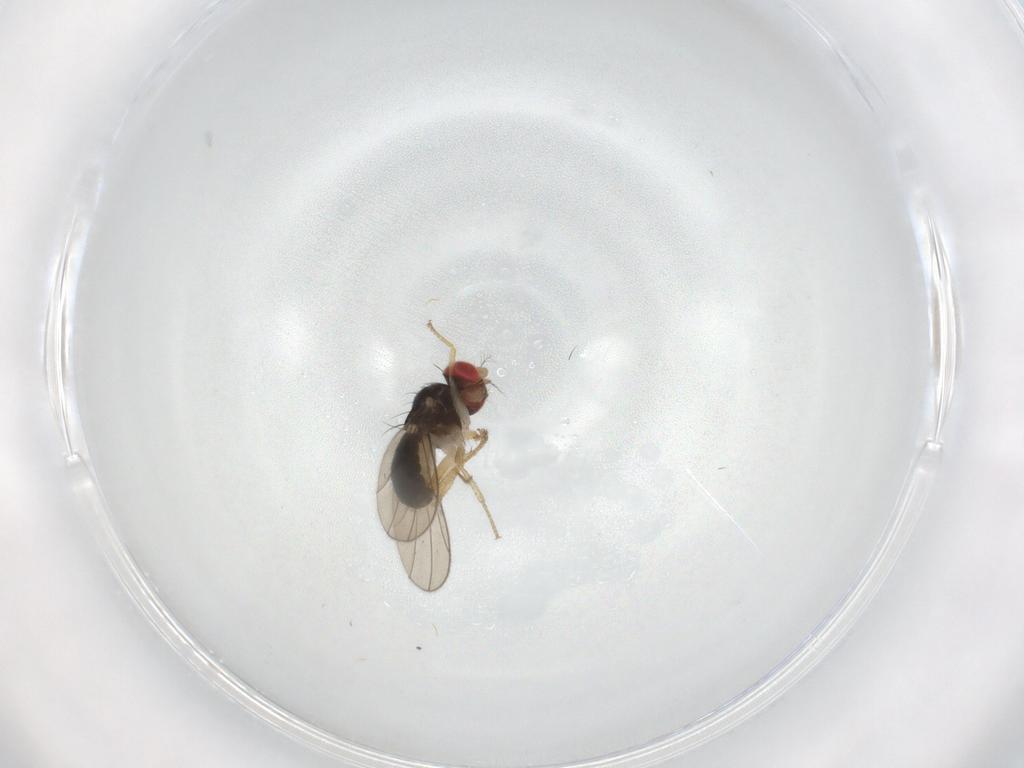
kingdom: Animalia
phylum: Arthropoda
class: Insecta
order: Diptera
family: Drosophilidae
